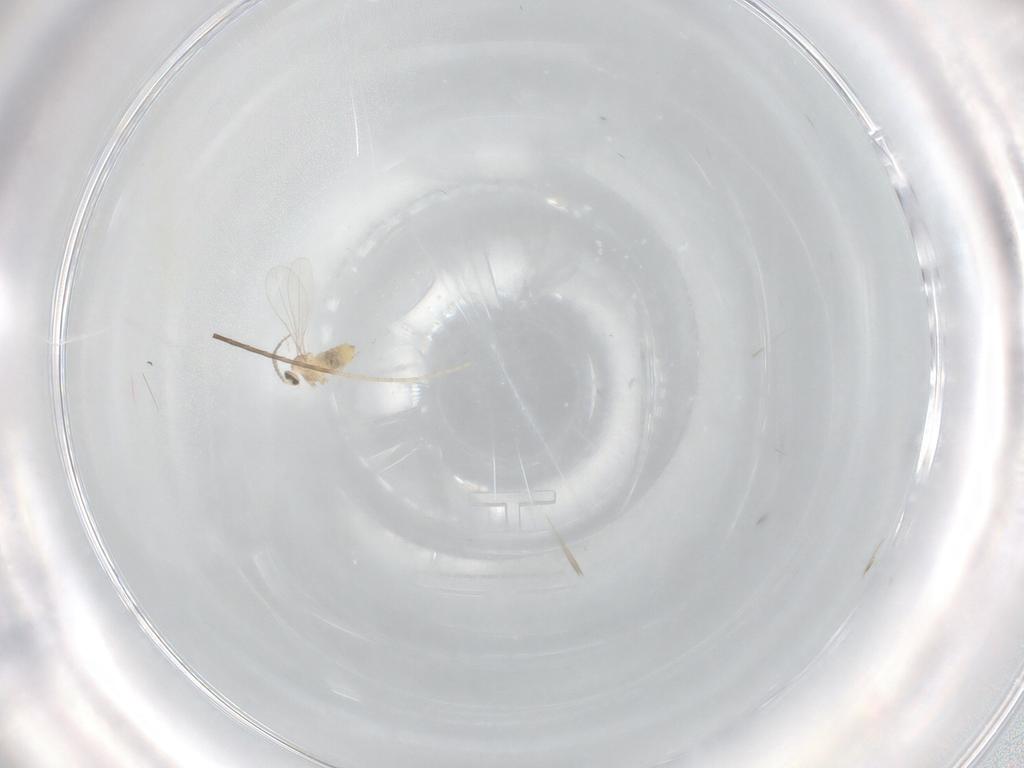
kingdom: Animalia
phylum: Arthropoda
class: Insecta
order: Diptera
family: Cecidomyiidae
